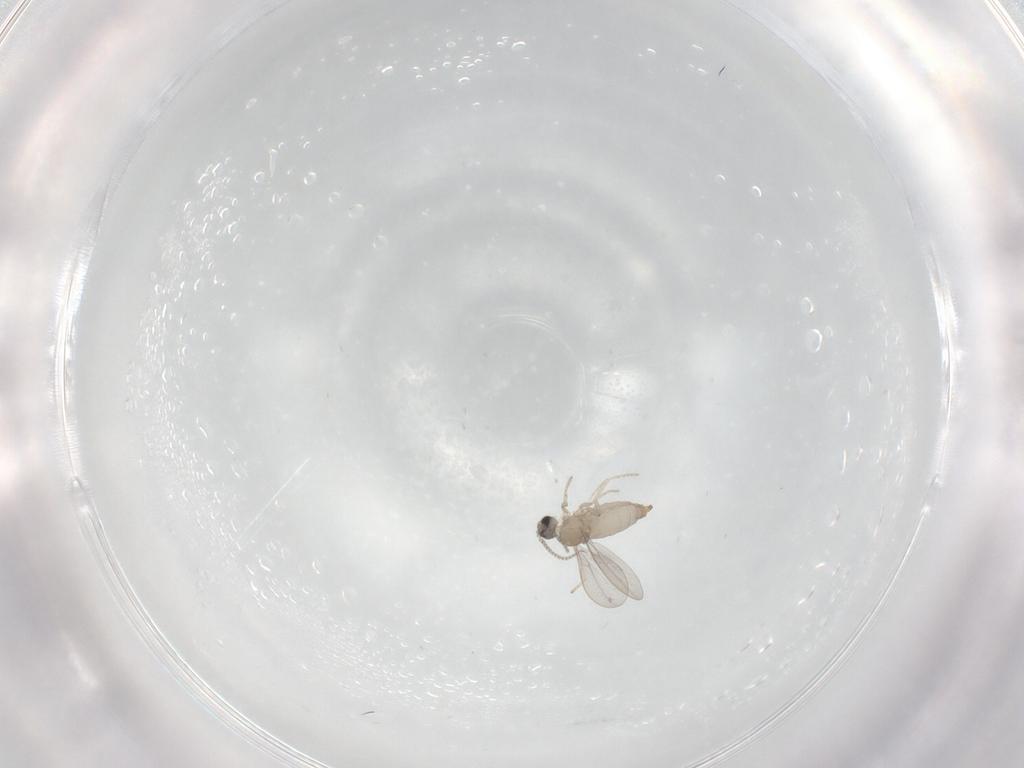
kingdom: Animalia
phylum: Arthropoda
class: Insecta
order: Diptera
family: Cecidomyiidae
